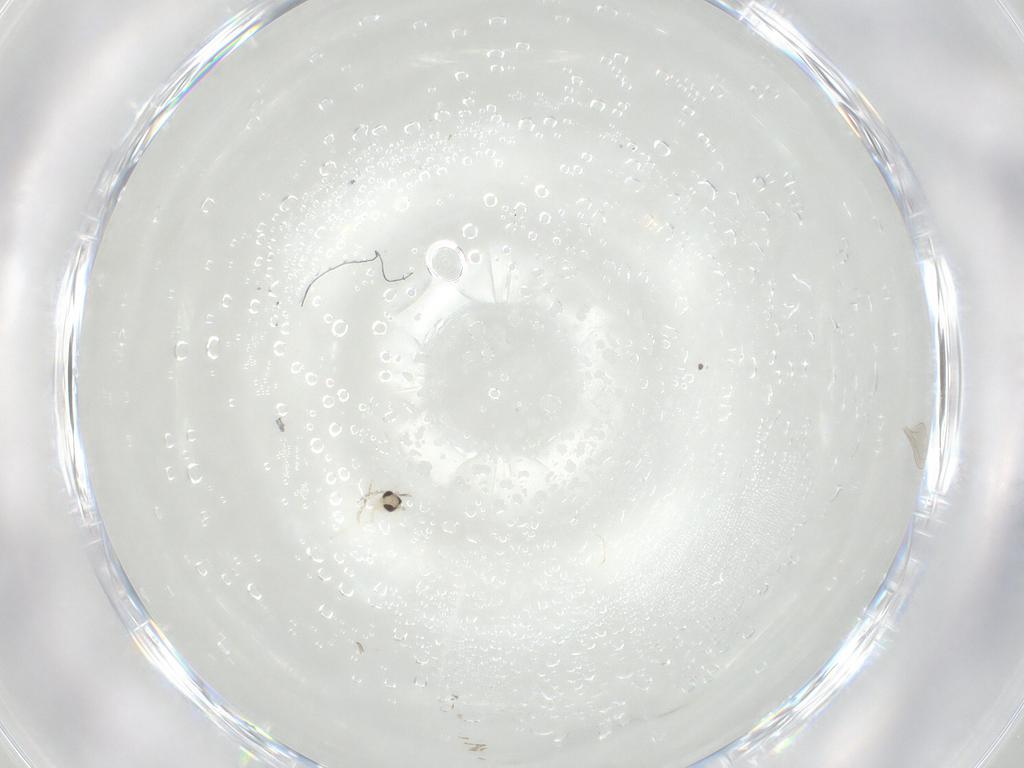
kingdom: Animalia
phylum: Arthropoda
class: Insecta
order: Diptera
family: Cecidomyiidae
